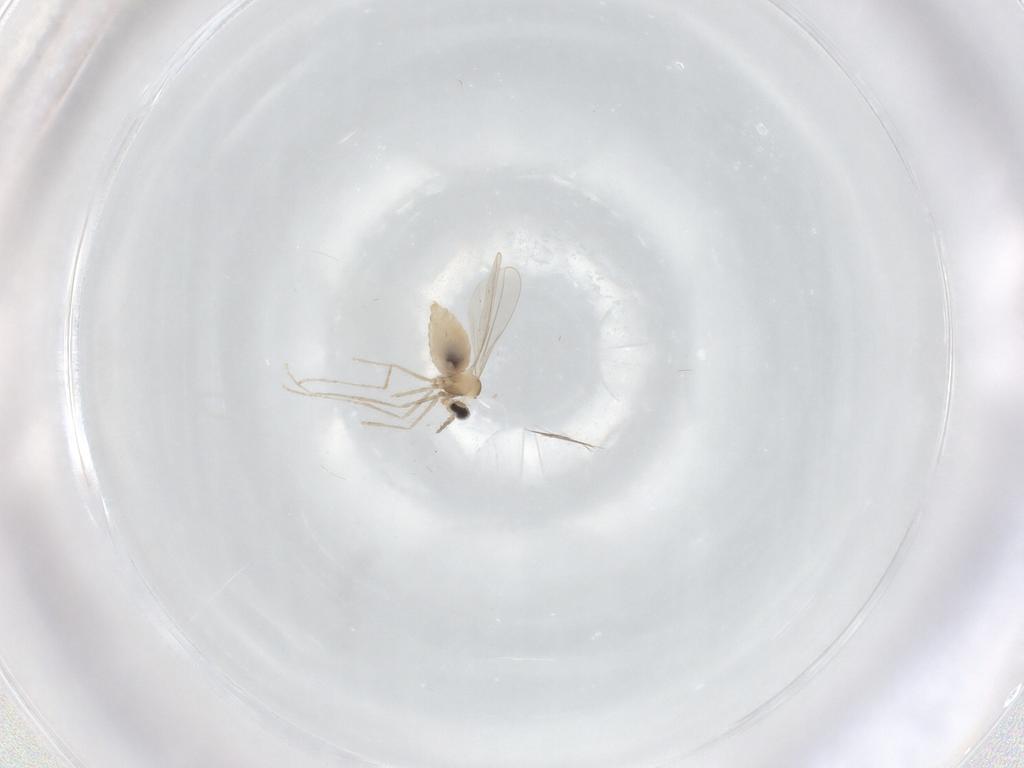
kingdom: Animalia
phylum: Arthropoda
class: Insecta
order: Diptera
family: Cecidomyiidae
